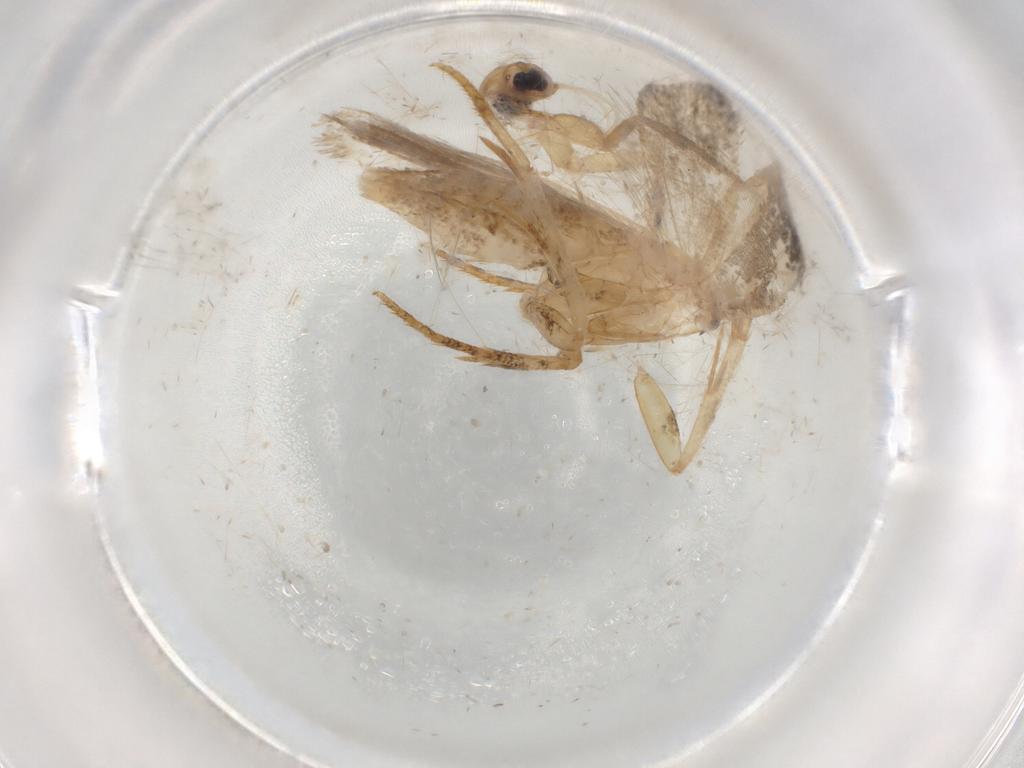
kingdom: Animalia
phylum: Arthropoda
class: Insecta
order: Lepidoptera
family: Gelechiidae
